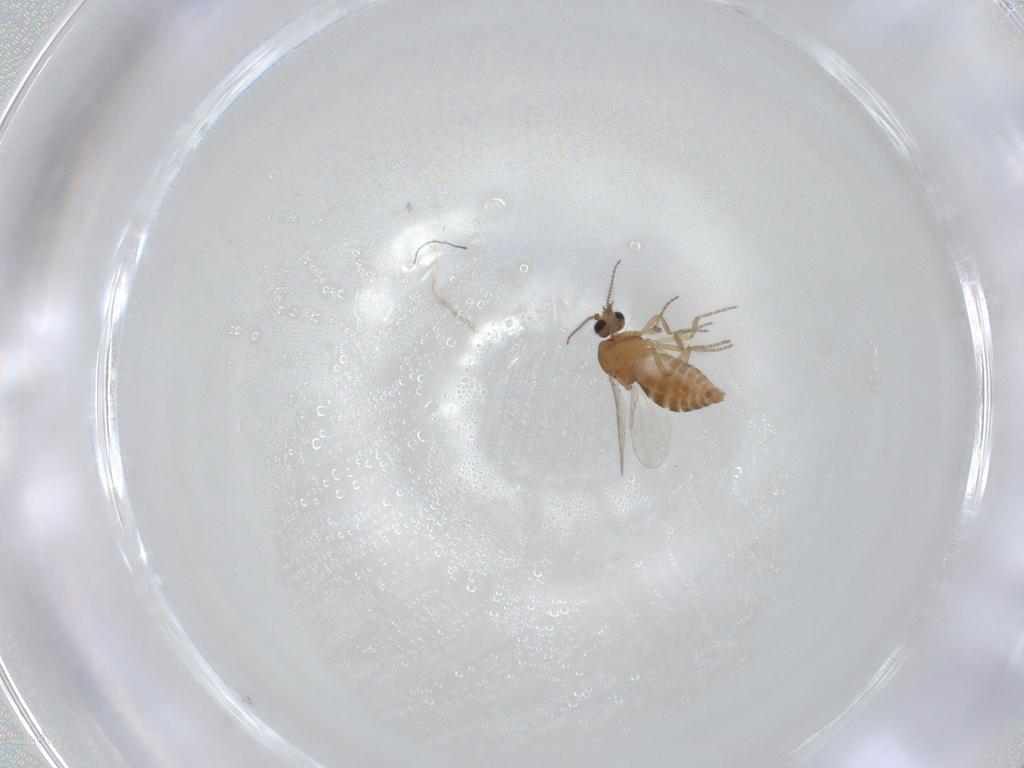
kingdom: Animalia
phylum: Arthropoda
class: Insecta
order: Diptera
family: Ceratopogonidae
